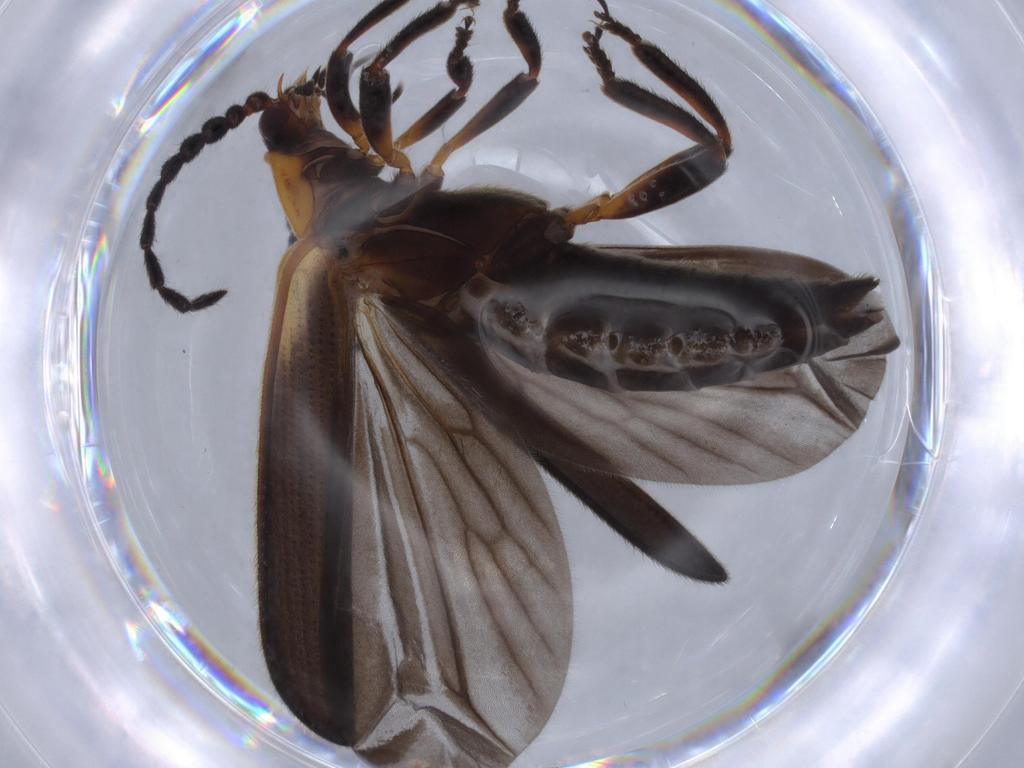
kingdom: Animalia
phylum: Arthropoda
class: Insecta
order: Coleoptera
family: Lycidae
